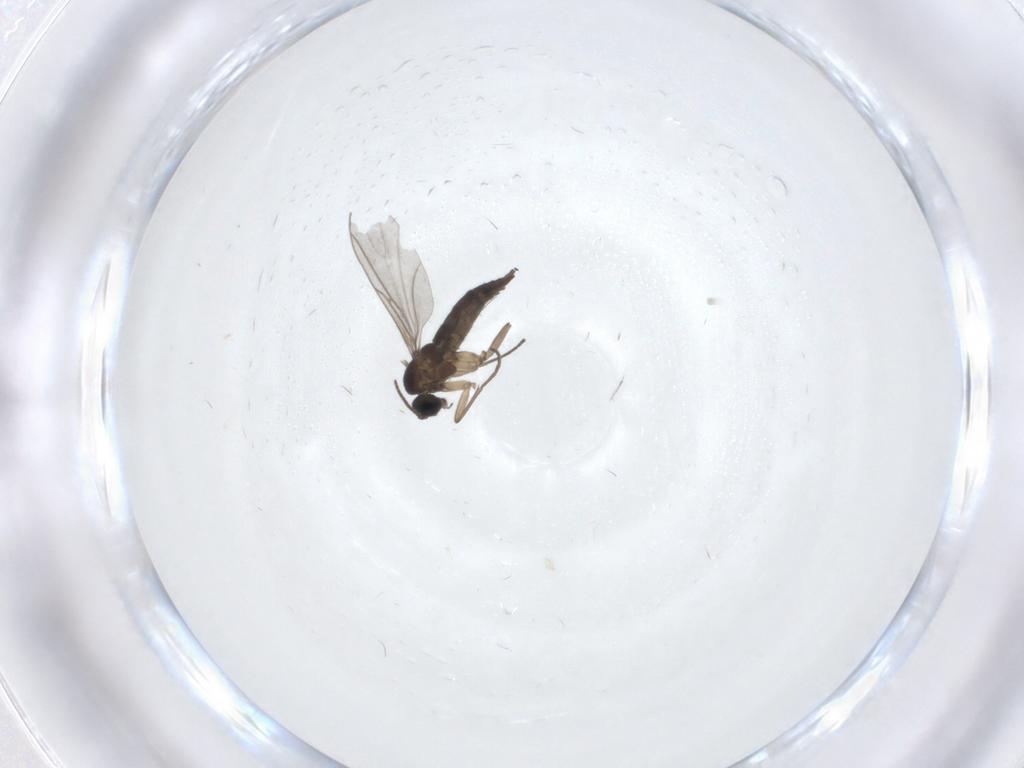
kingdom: Animalia
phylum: Arthropoda
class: Insecta
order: Diptera
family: Sciaridae
